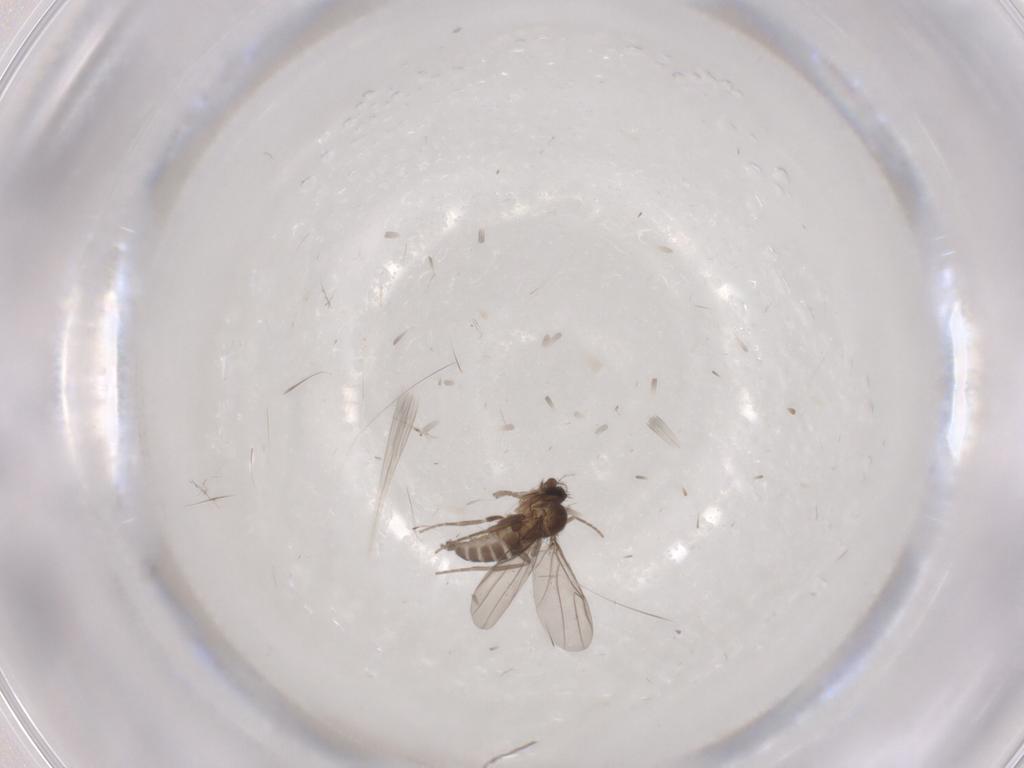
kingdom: Animalia
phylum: Arthropoda
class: Insecta
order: Diptera
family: Phoridae
